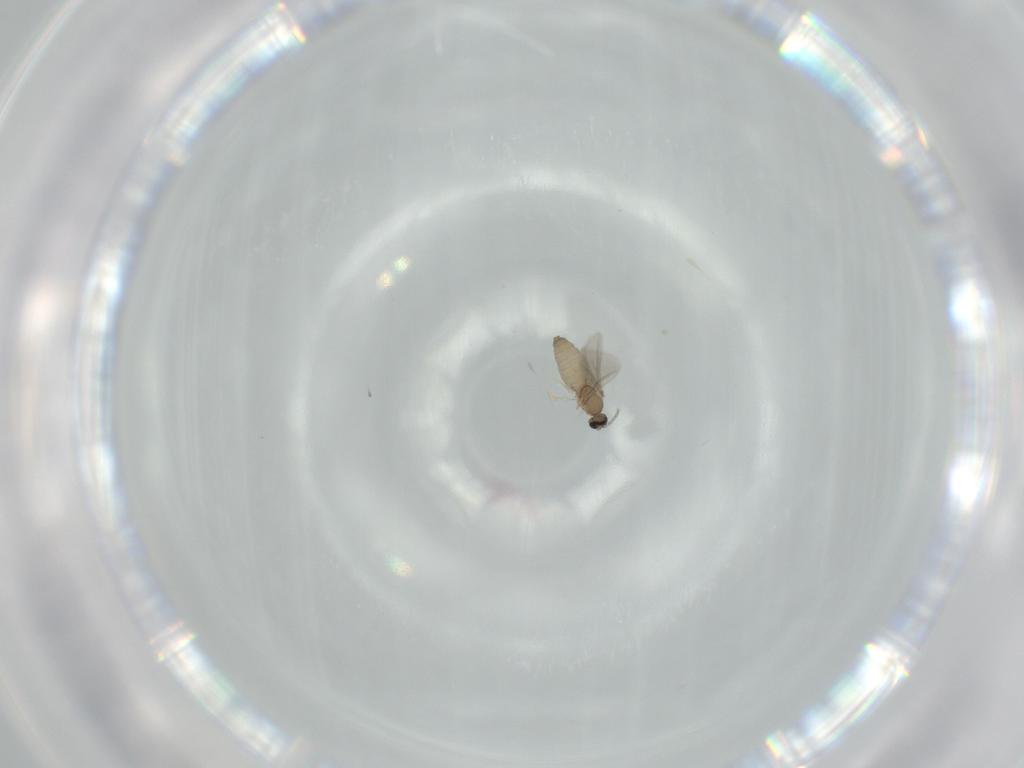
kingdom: Animalia
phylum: Arthropoda
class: Insecta
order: Diptera
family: Cecidomyiidae
